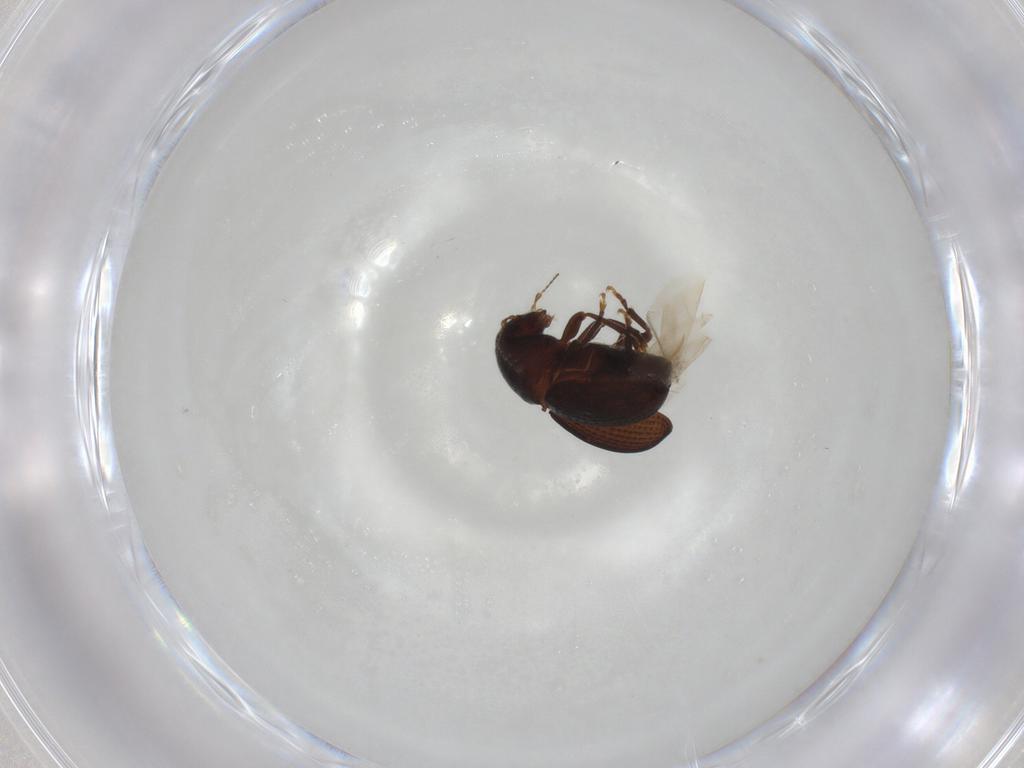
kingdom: Animalia
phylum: Arthropoda
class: Insecta
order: Coleoptera
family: Anthribidae
